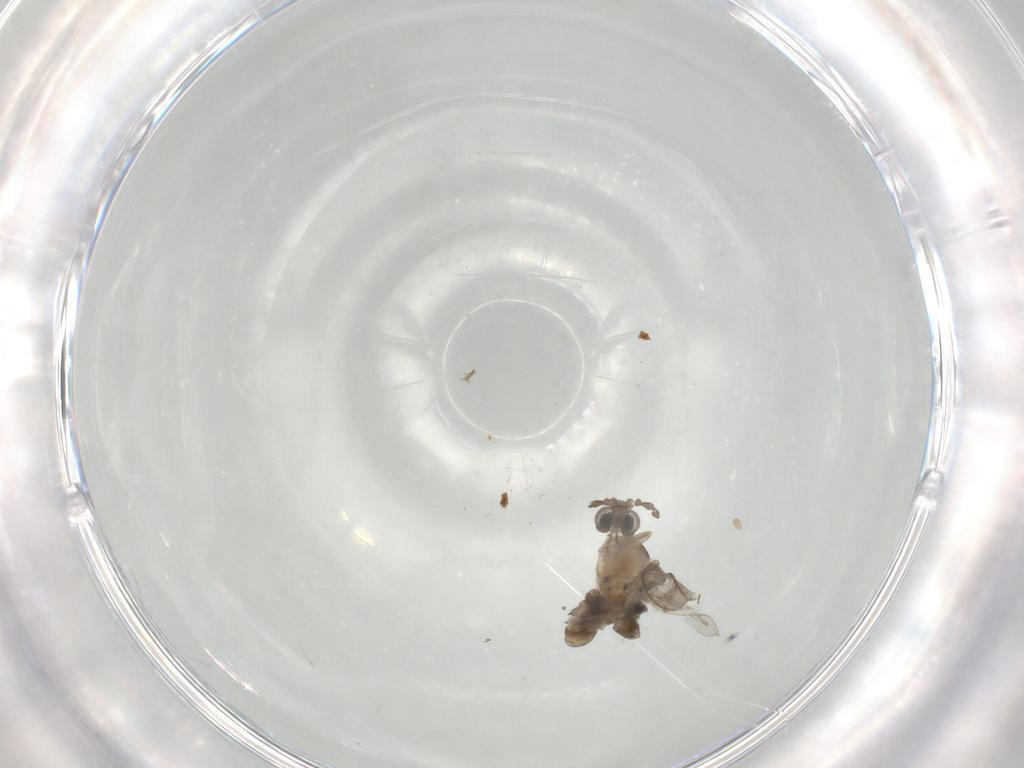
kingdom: Animalia
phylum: Arthropoda
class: Insecta
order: Diptera
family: Cecidomyiidae
